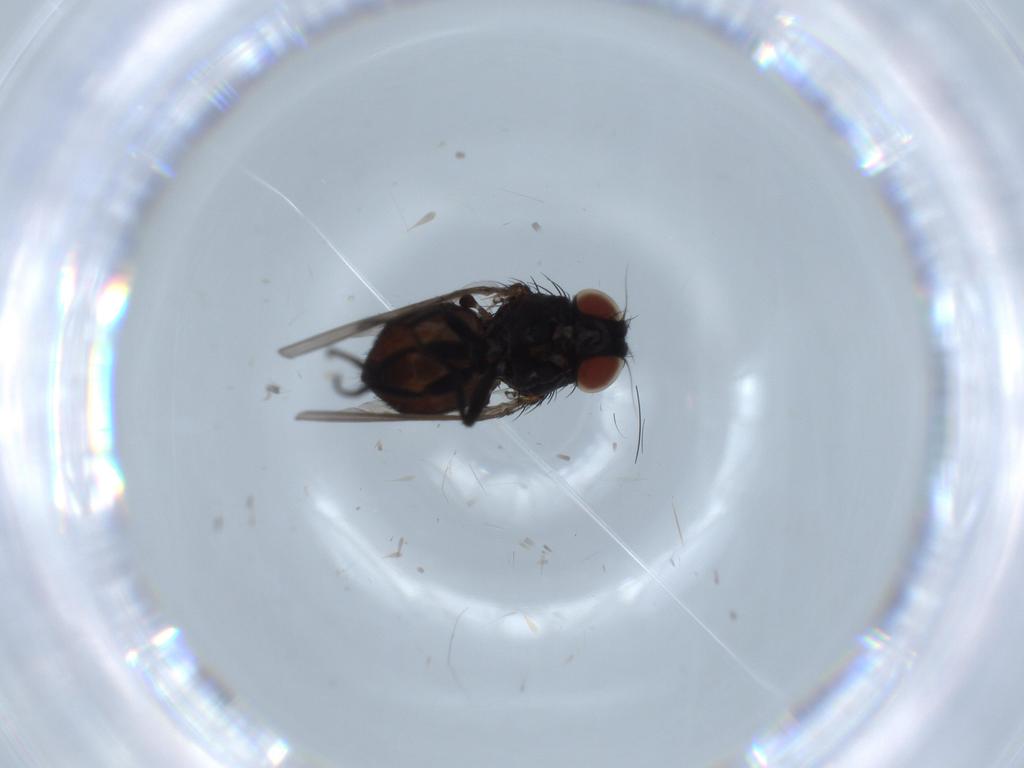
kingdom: Animalia
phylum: Arthropoda
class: Insecta
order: Diptera
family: Milichiidae
